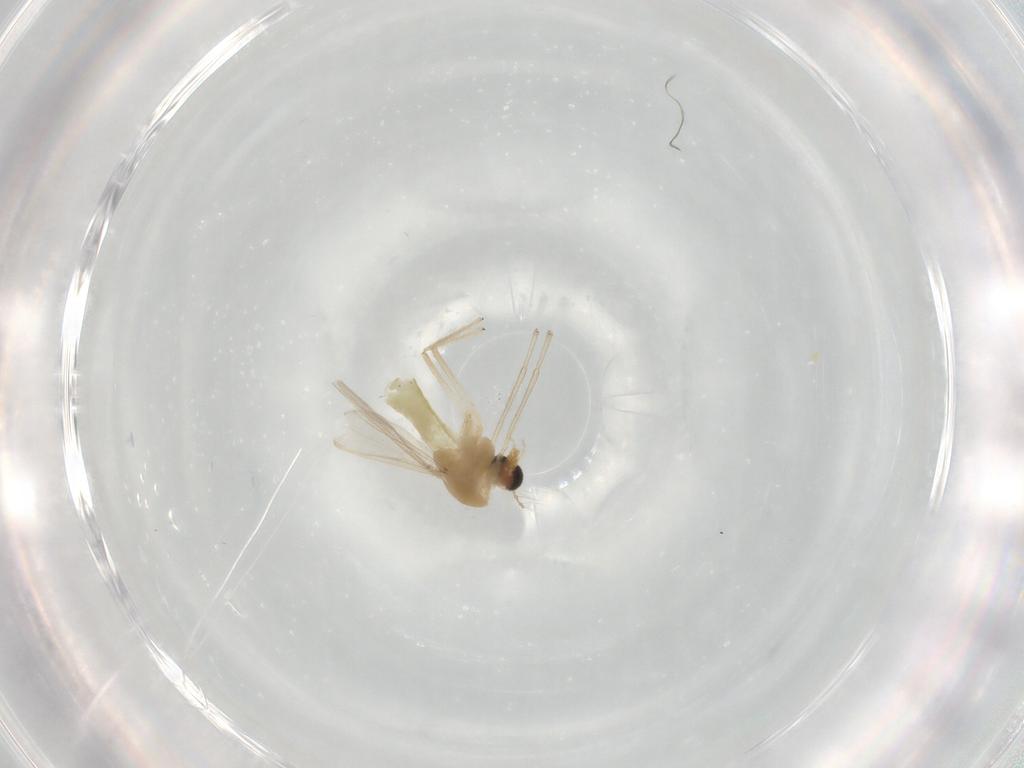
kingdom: Animalia
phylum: Arthropoda
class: Insecta
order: Diptera
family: Chironomidae
